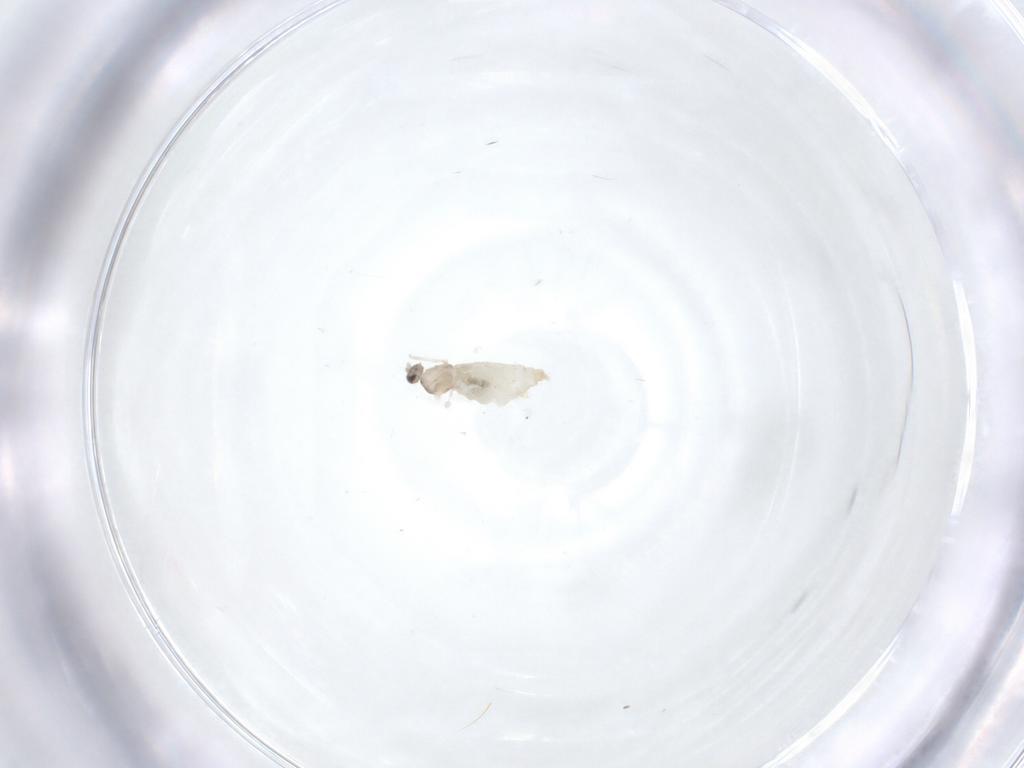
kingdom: Animalia
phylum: Arthropoda
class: Insecta
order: Diptera
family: Cecidomyiidae
